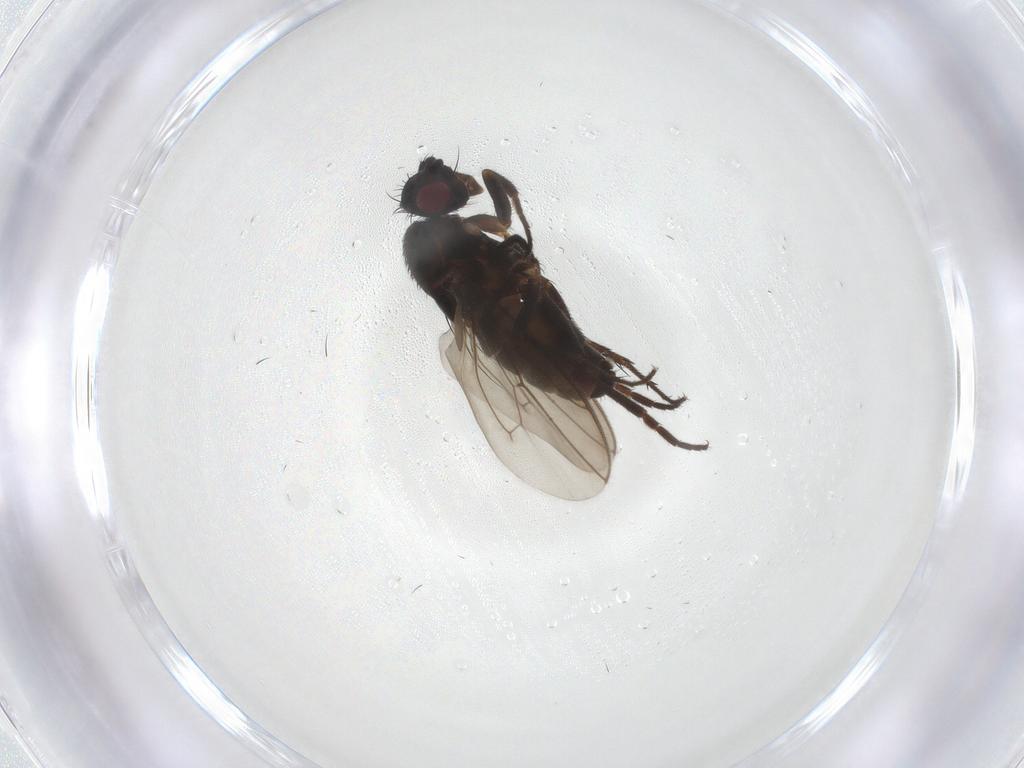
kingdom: Animalia
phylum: Arthropoda
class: Insecta
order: Diptera
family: Sphaeroceridae
